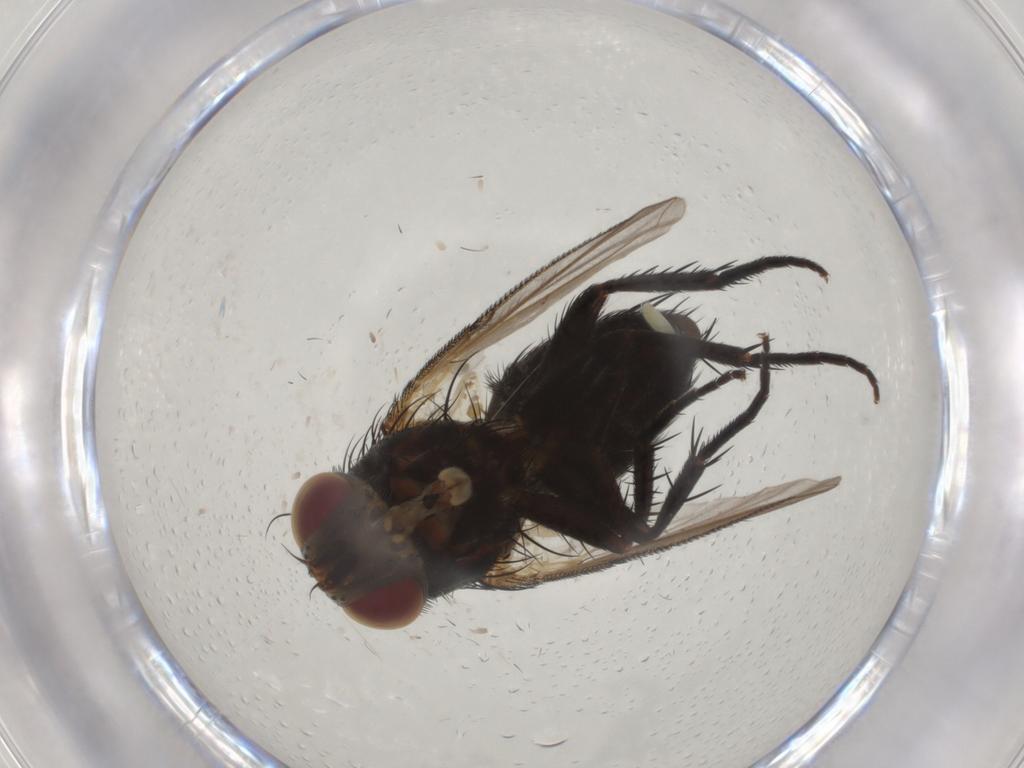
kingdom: Animalia
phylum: Arthropoda
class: Insecta
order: Diptera
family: Tachinidae
